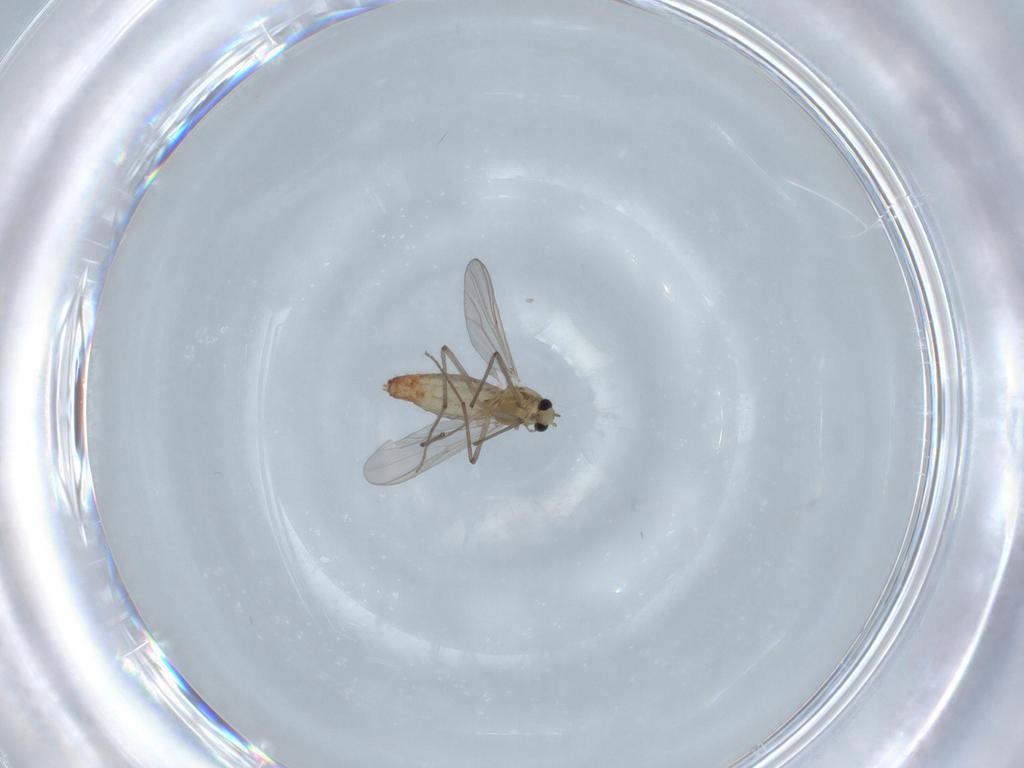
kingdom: Animalia
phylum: Arthropoda
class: Insecta
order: Diptera
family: Chironomidae
